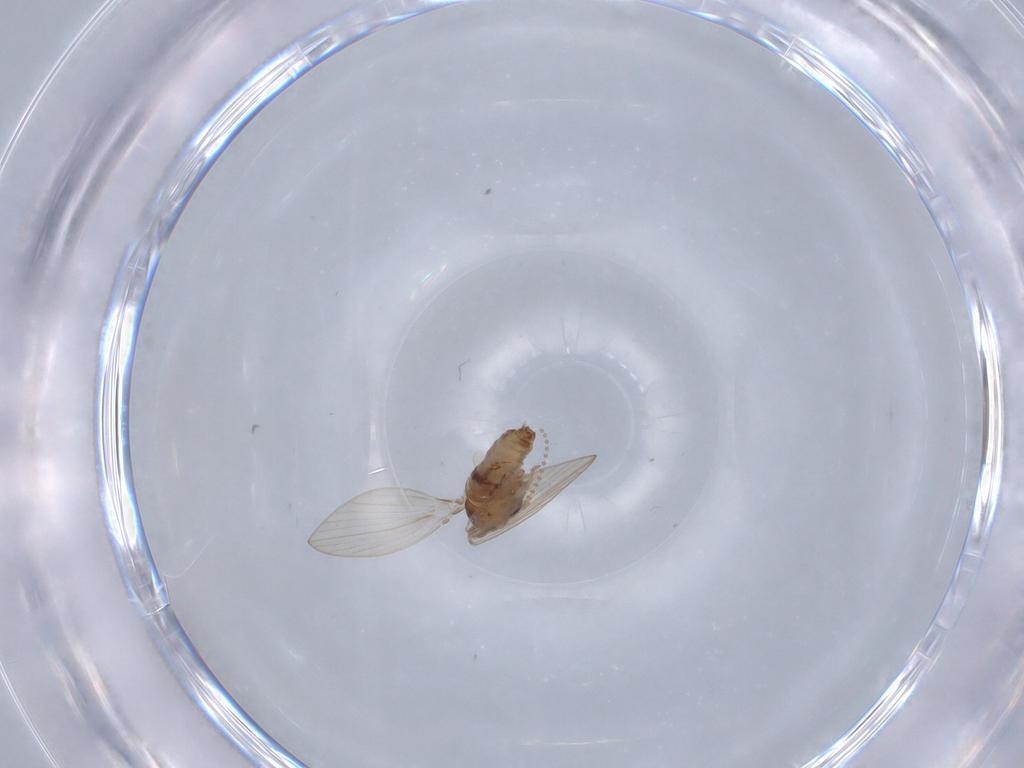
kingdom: Animalia
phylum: Arthropoda
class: Insecta
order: Diptera
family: Psychodidae
